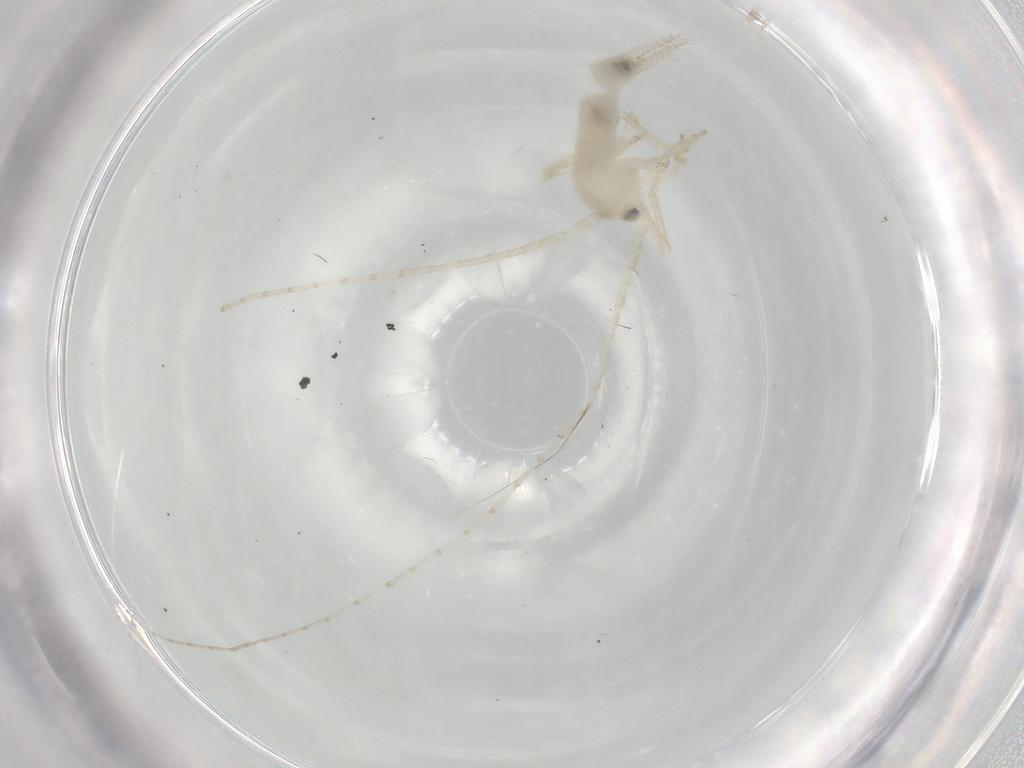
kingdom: Animalia
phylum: Arthropoda
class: Insecta
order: Orthoptera
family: Trigonidiidae
